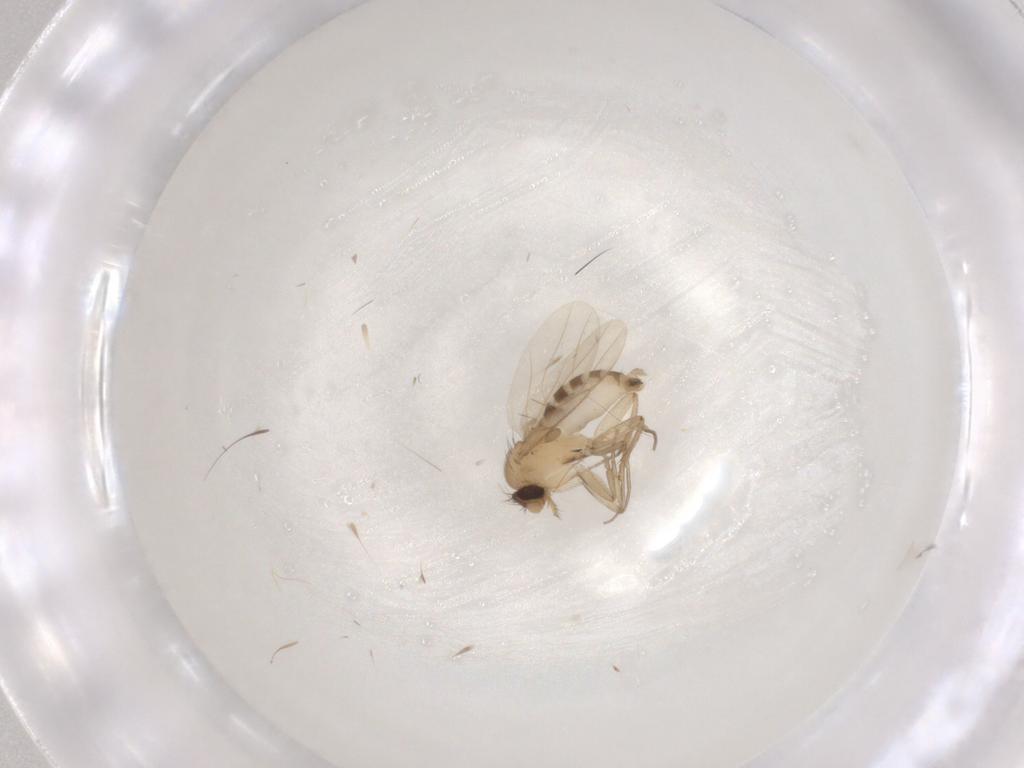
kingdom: Animalia
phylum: Arthropoda
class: Insecta
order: Diptera
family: Phoridae
